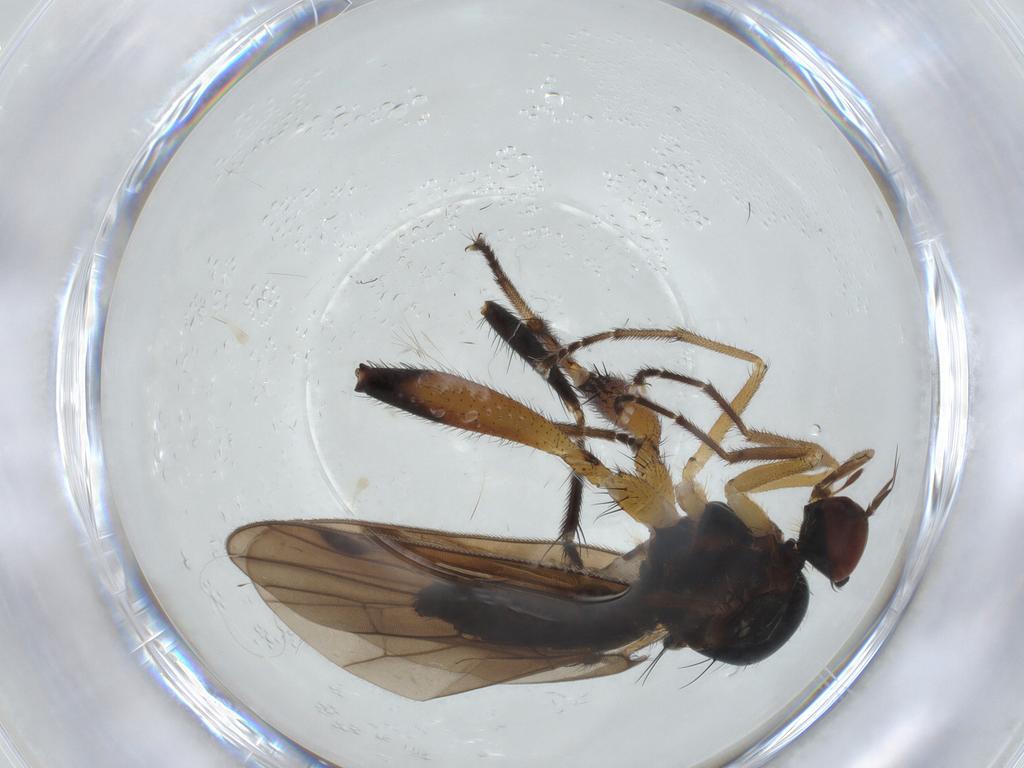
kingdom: Animalia
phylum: Arthropoda
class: Insecta
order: Diptera
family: Hybotidae
